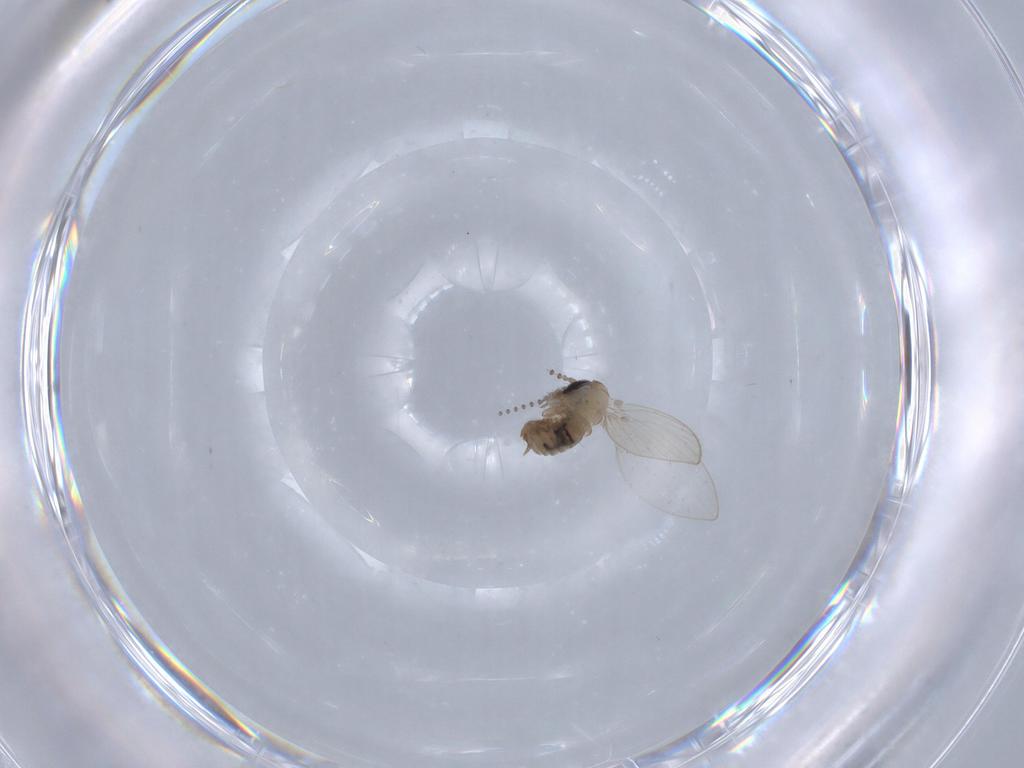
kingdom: Animalia
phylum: Arthropoda
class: Insecta
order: Diptera
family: Psychodidae
